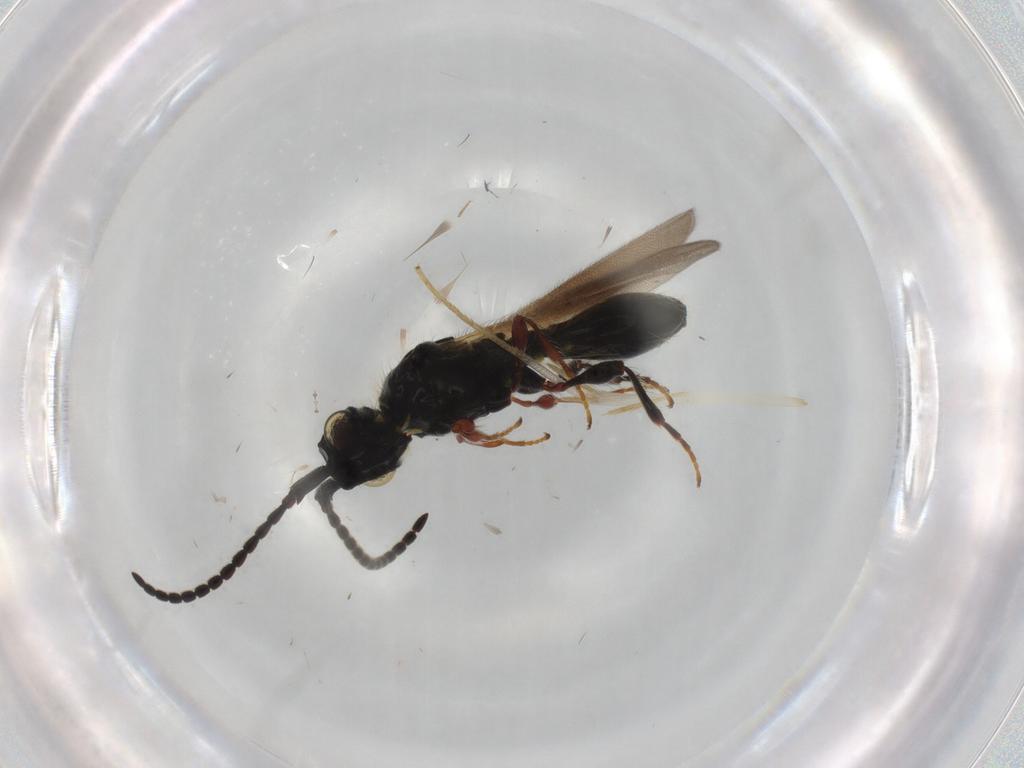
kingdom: Animalia
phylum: Arthropoda
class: Insecta
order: Hymenoptera
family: Diapriidae
